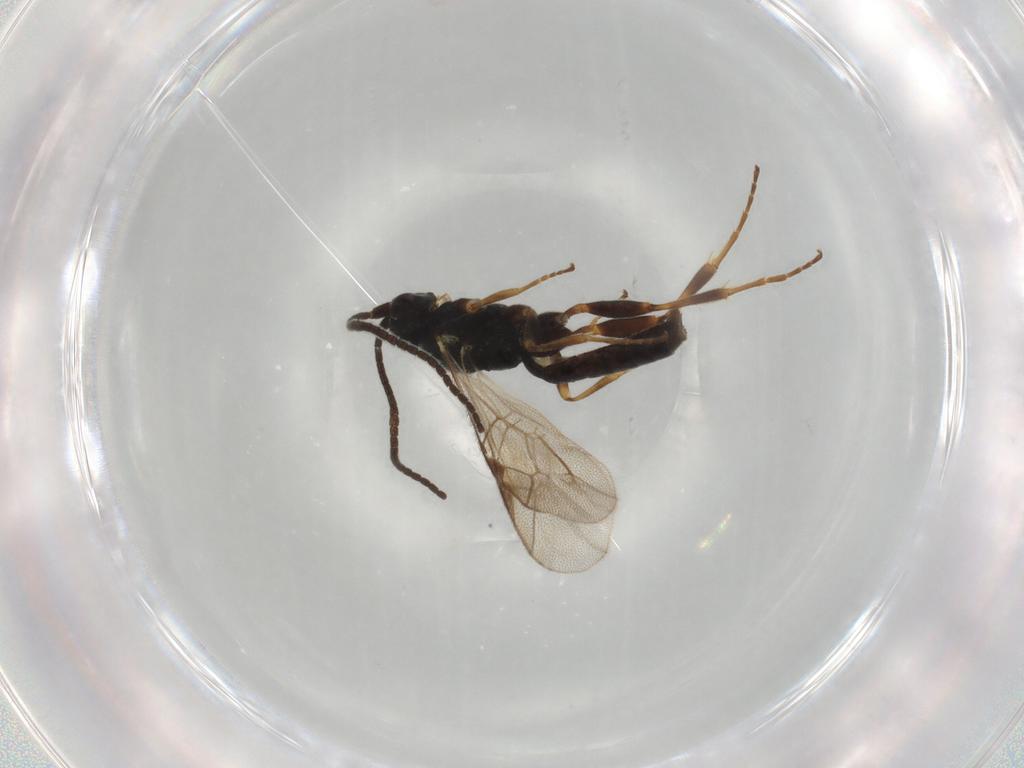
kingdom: Animalia
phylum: Arthropoda
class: Insecta
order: Hymenoptera
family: Ichneumonidae
